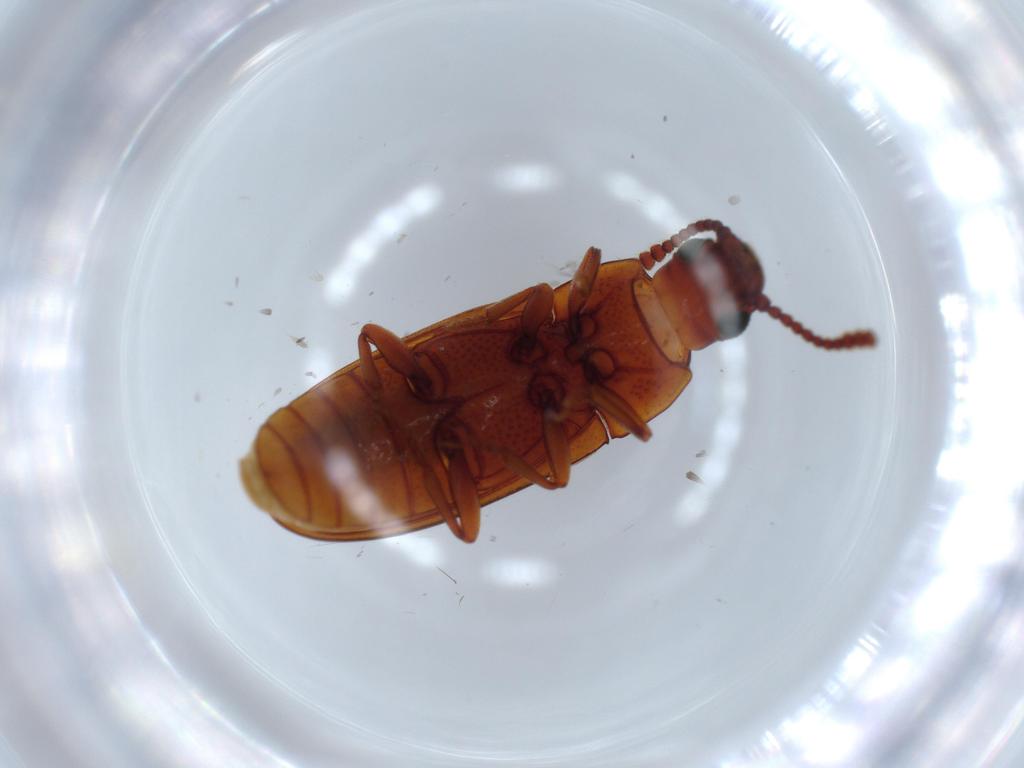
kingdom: Animalia
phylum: Arthropoda
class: Insecta
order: Coleoptera
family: Erotylidae
